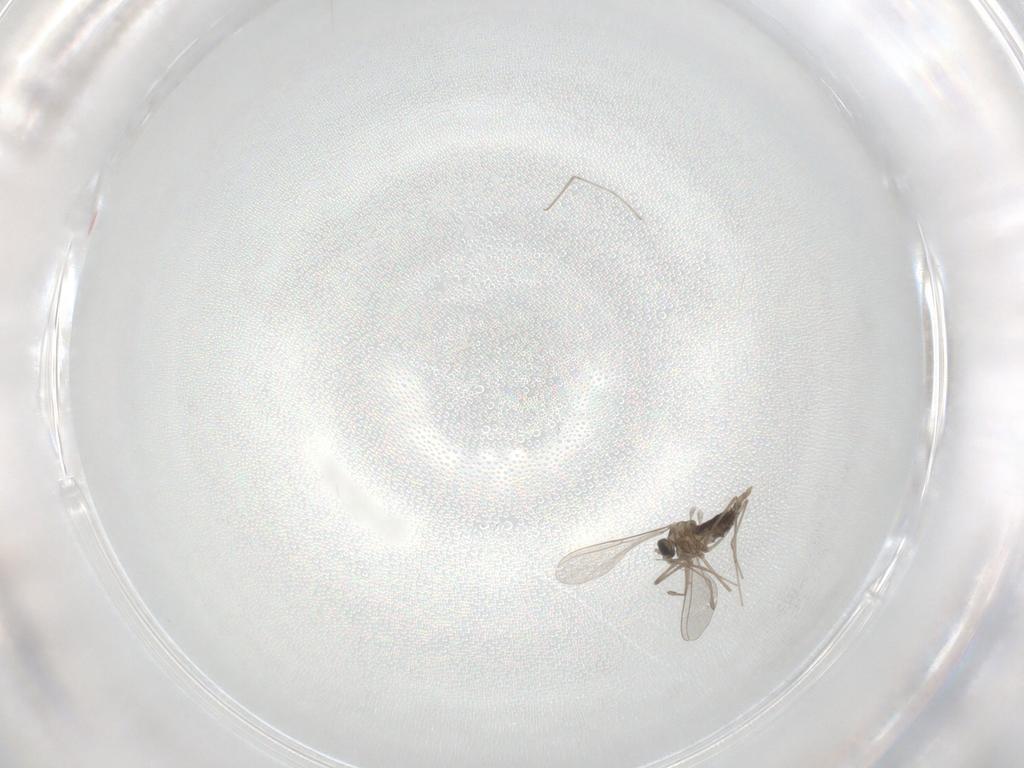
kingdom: Animalia
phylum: Arthropoda
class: Insecta
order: Diptera
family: Cecidomyiidae
